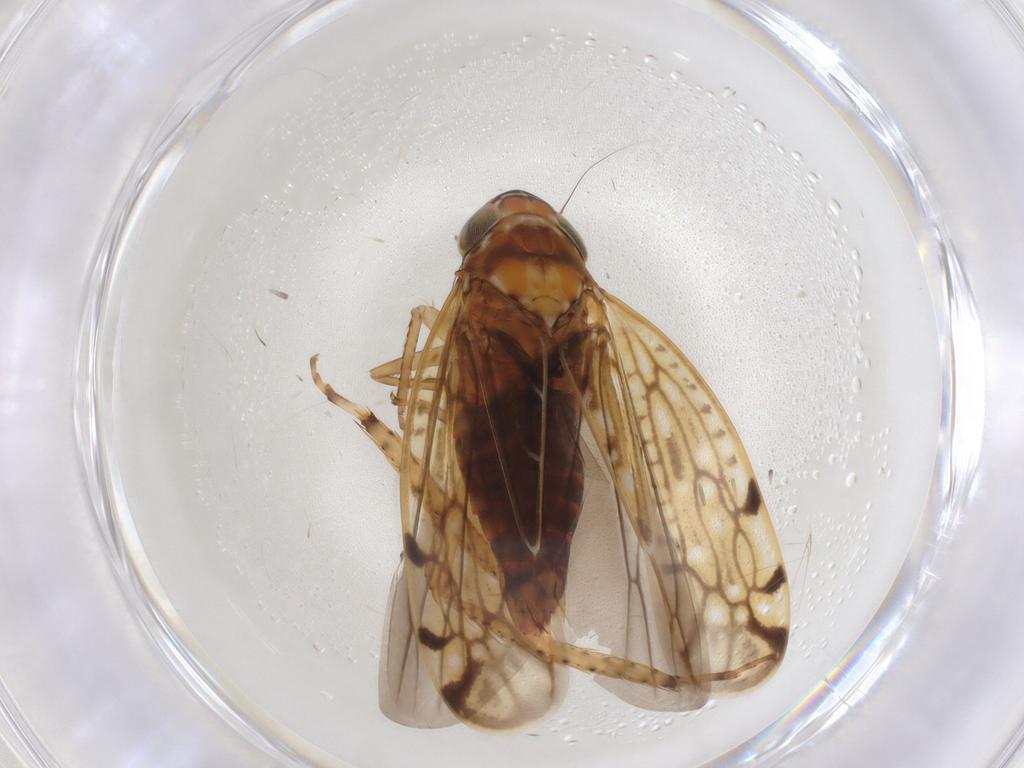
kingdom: Animalia
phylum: Arthropoda
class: Insecta
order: Hemiptera
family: Cicadellidae
